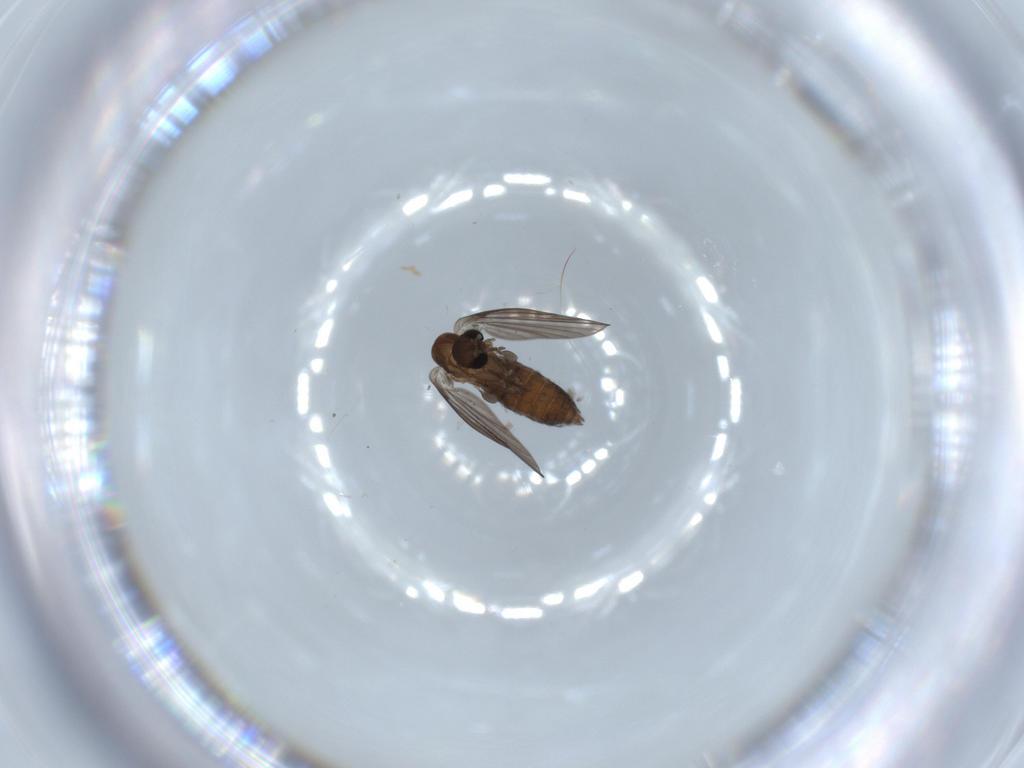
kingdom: Animalia
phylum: Arthropoda
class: Insecta
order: Diptera
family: Psychodidae
